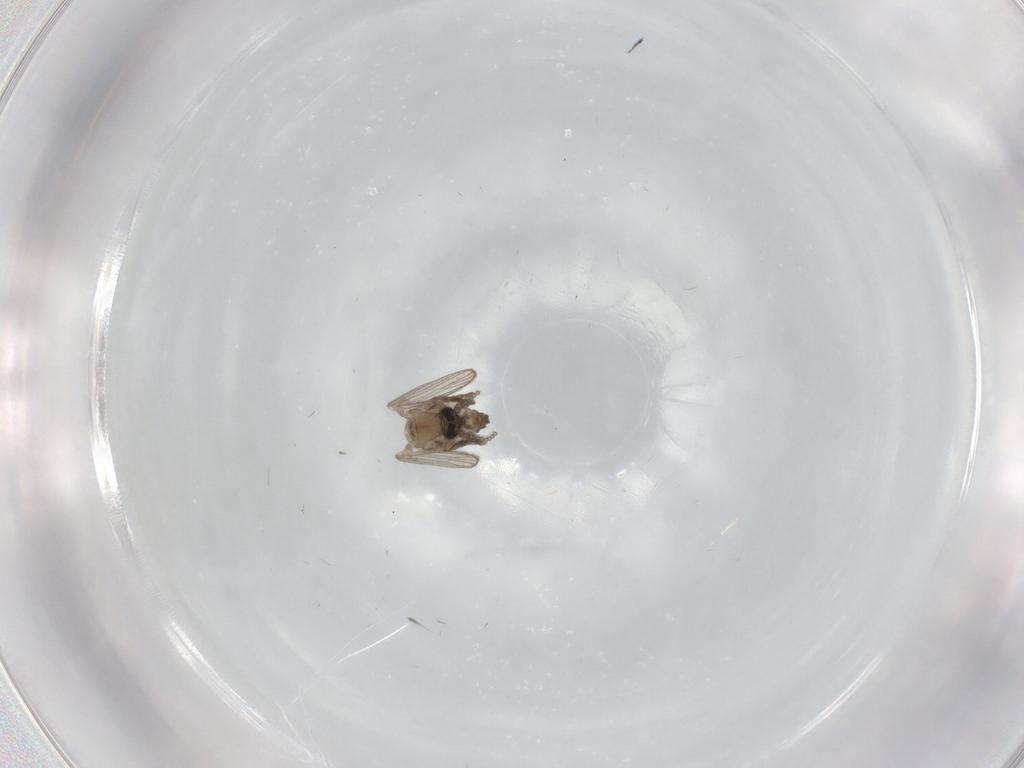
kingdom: Animalia
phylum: Arthropoda
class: Insecta
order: Diptera
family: Psychodidae
